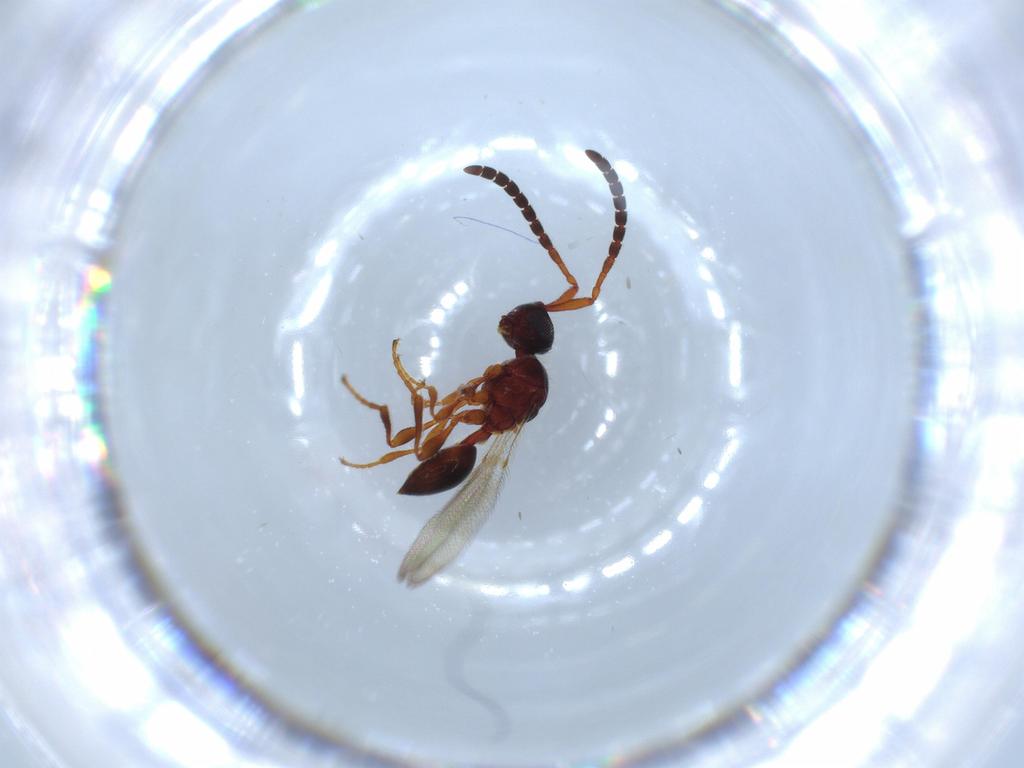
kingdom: Animalia
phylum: Arthropoda
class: Insecta
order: Hymenoptera
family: Diapriidae
